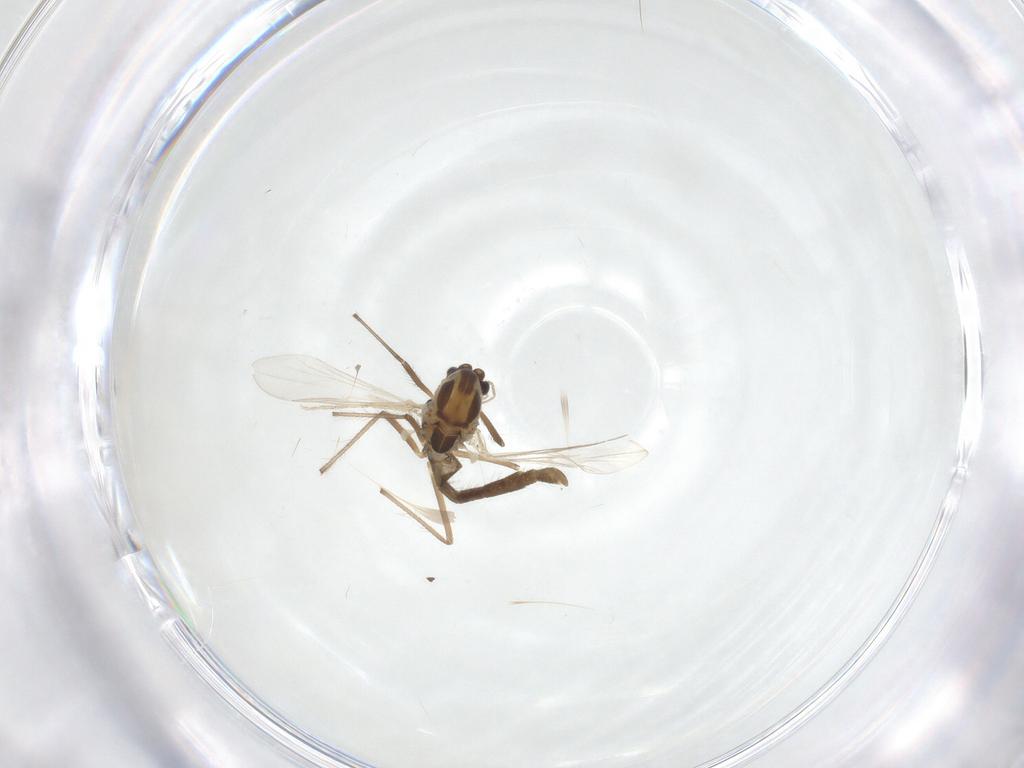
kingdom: Animalia
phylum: Arthropoda
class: Insecta
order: Diptera
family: Chironomidae
